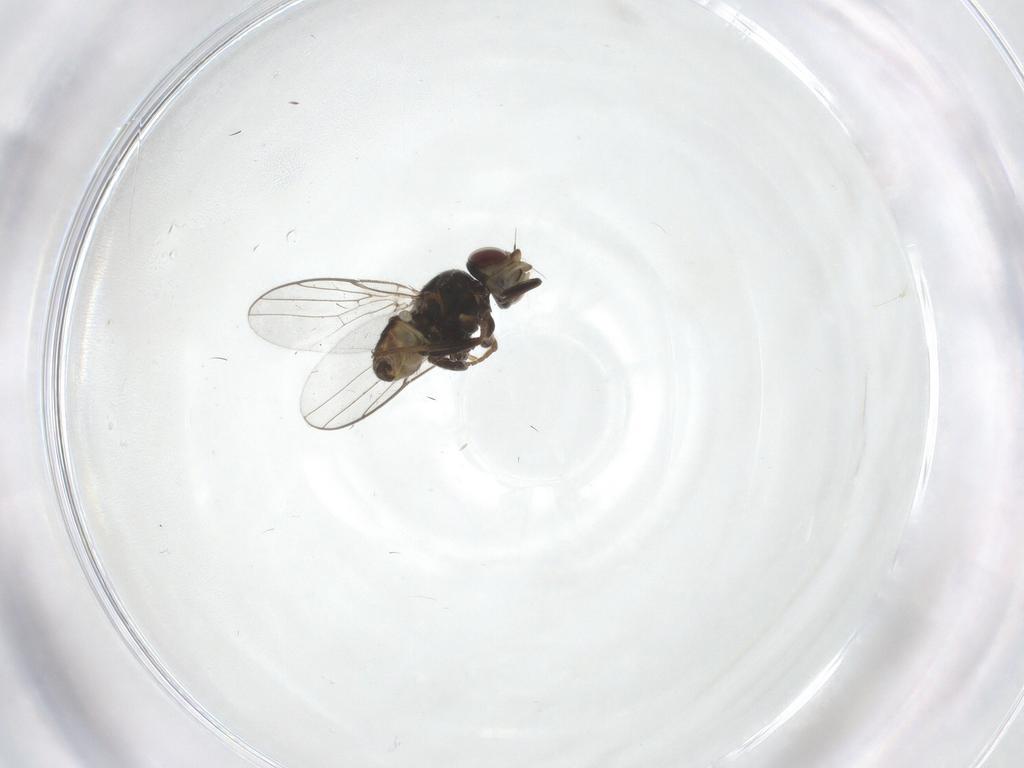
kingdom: Animalia
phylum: Arthropoda
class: Insecta
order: Diptera
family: Chloropidae
